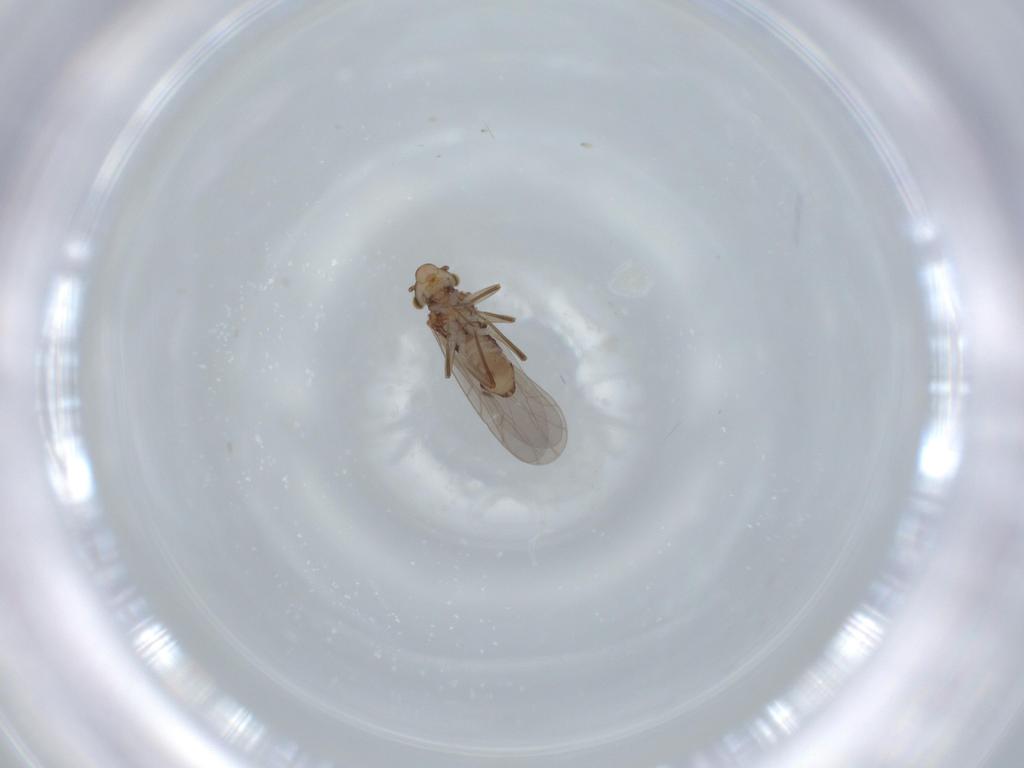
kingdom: Animalia
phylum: Arthropoda
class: Insecta
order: Psocodea
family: Lepidopsocidae
